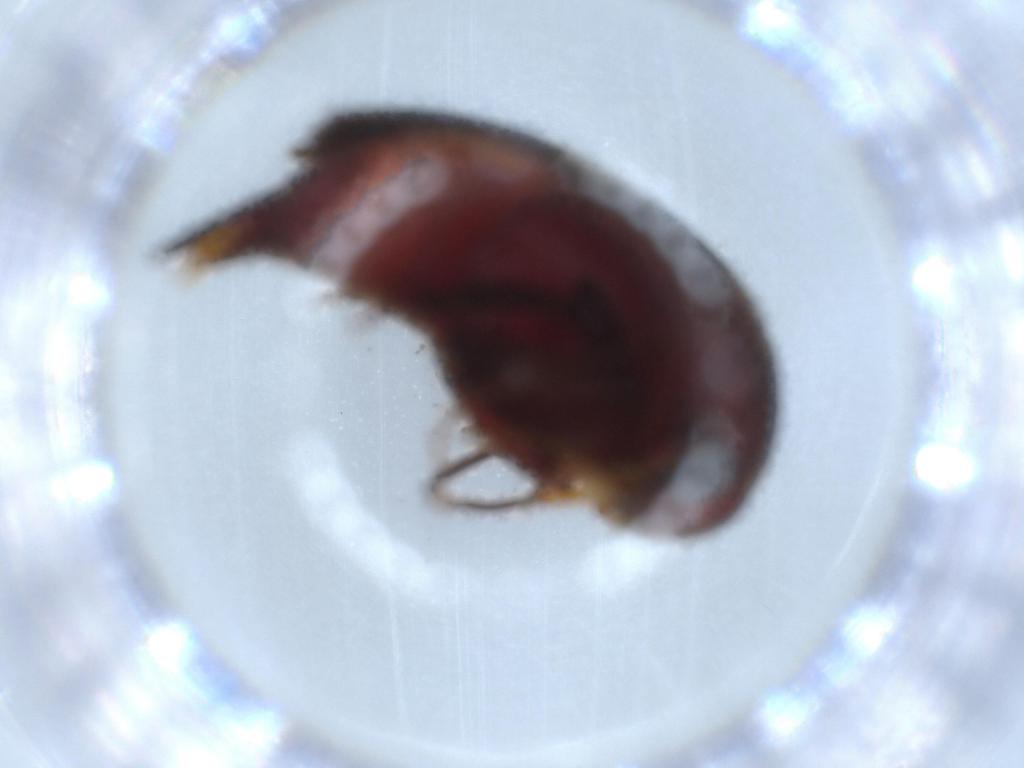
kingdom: Animalia
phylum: Arthropoda
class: Insecta
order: Coleoptera
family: Mordellidae
